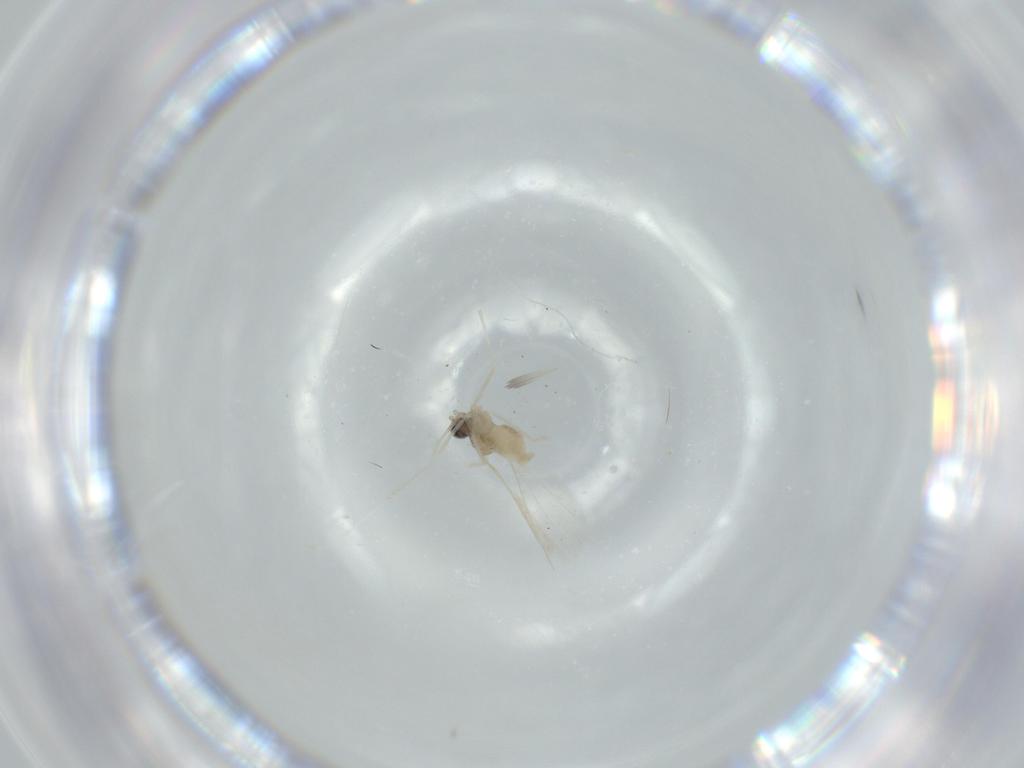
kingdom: Animalia
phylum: Arthropoda
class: Insecta
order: Diptera
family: Cecidomyiidae
